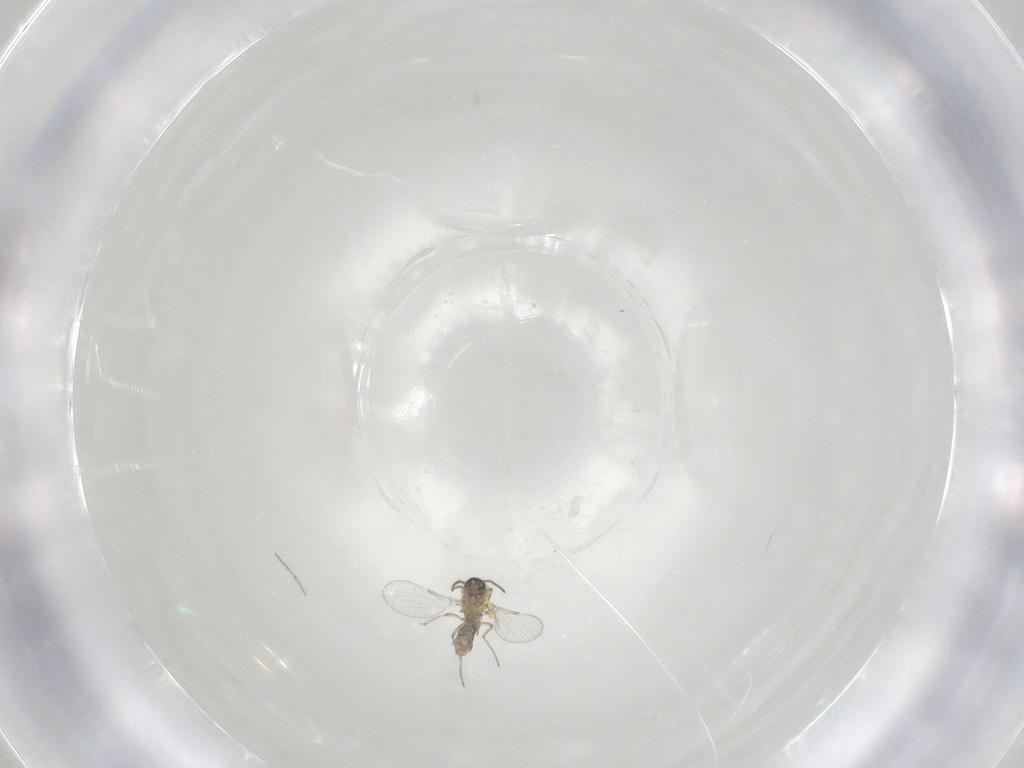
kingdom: Animalia
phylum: Arthropoda
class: Insecta
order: Diptera
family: Ceratopogonidae
